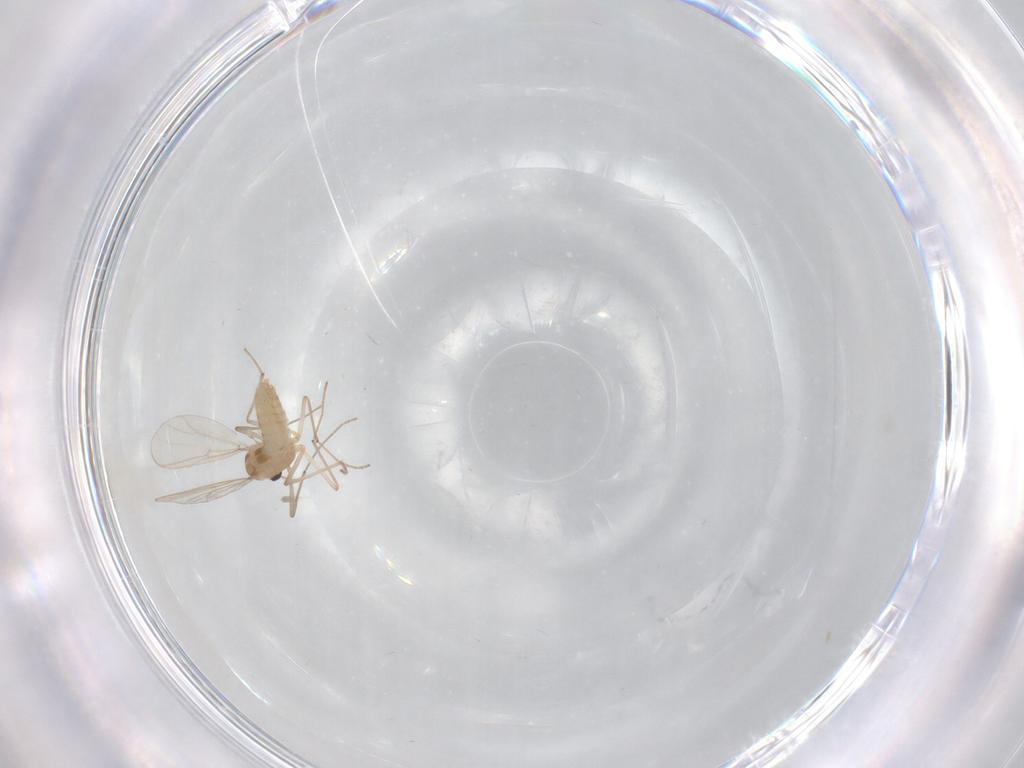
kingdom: Animalia
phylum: Arthropoda
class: Insecta
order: Diptera
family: Chironomidae
